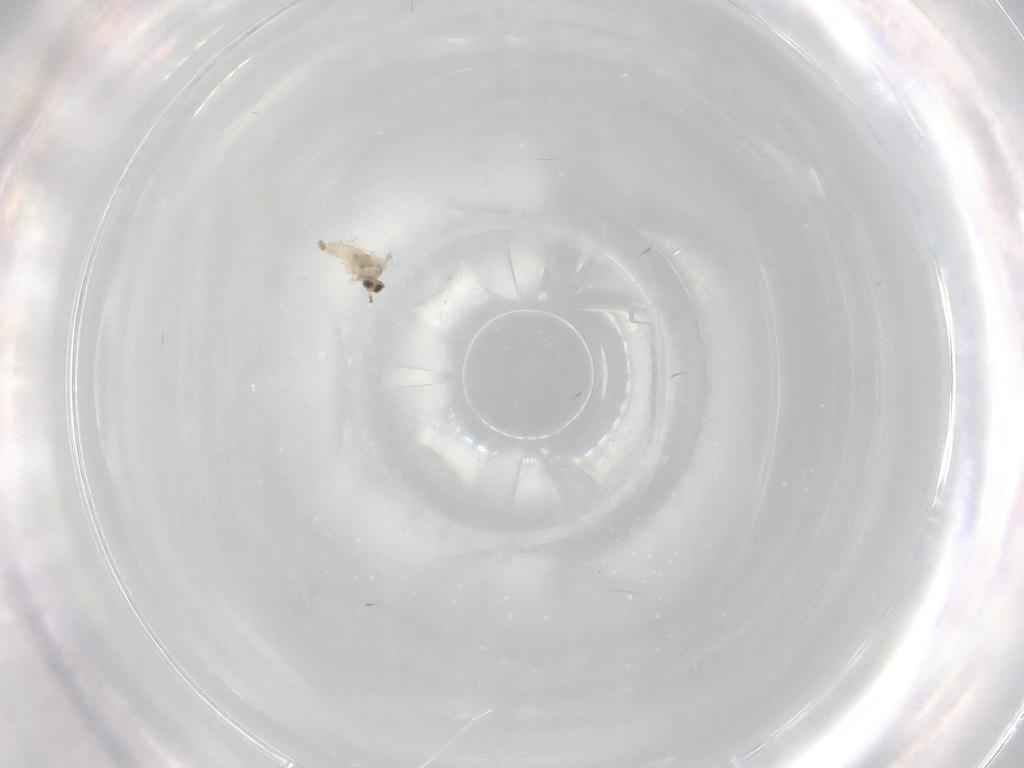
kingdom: Animalia
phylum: Arthropoda
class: Insecta
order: Diptera
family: Cecidomyiidae
